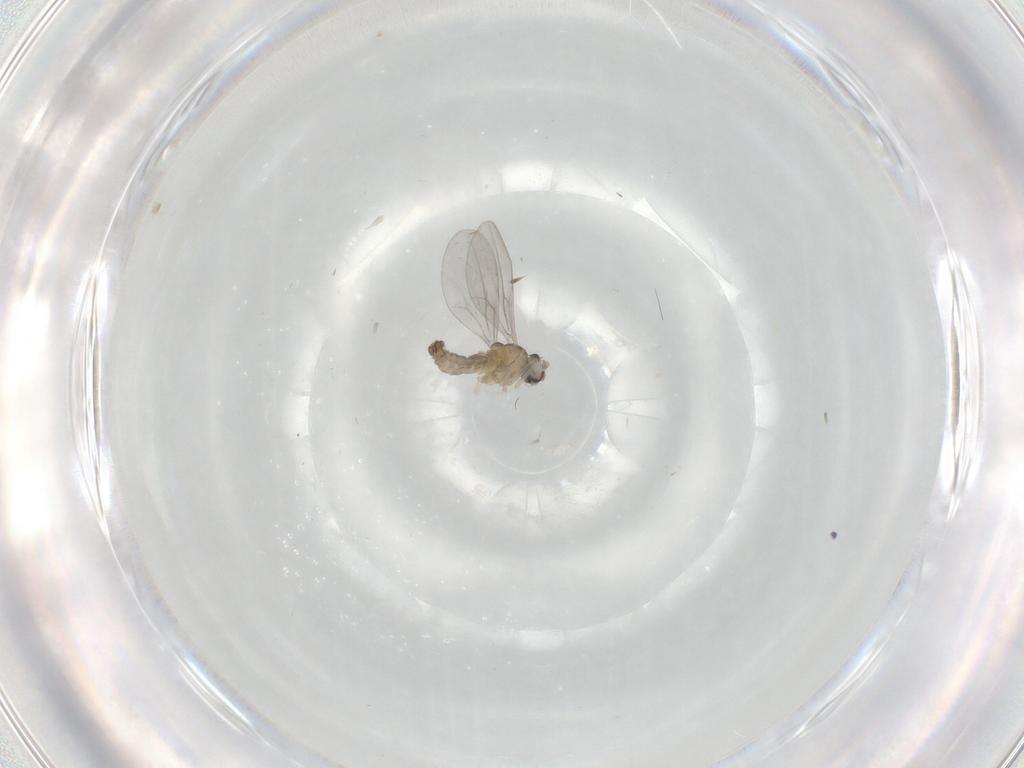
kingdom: Animalia
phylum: Arthropoda
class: Insecta
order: Diptera
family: Cecidomyiidae
